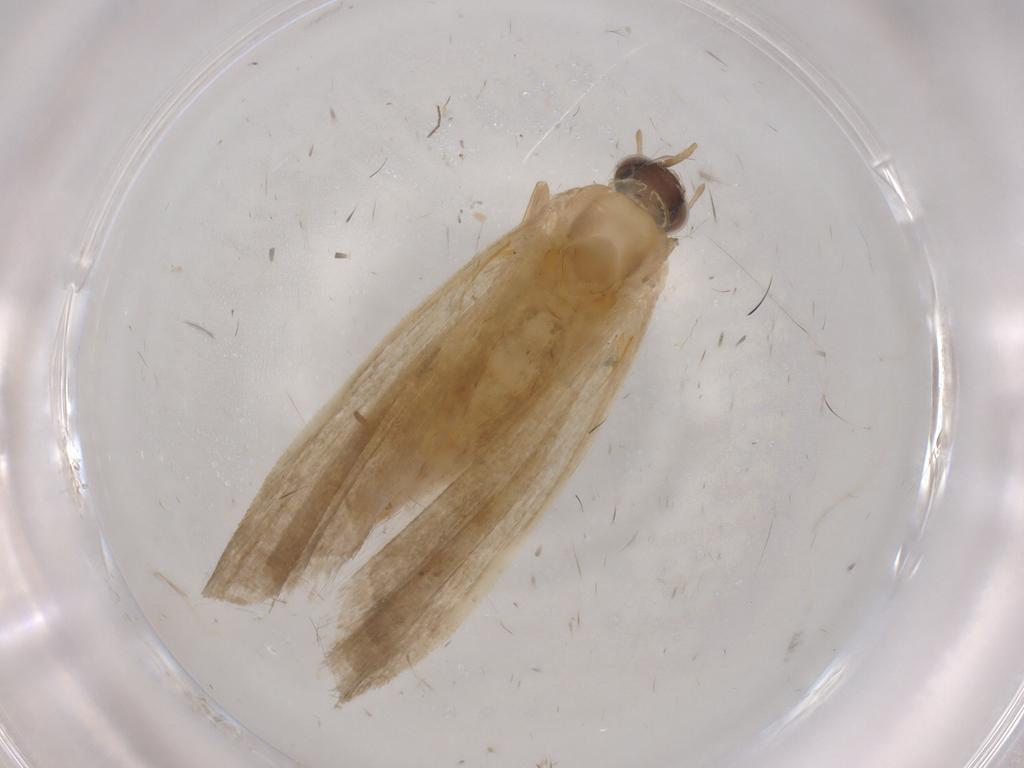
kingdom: Animalia
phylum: Arthropoda
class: Insecta
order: Lepidoptera
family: Noctuidae
